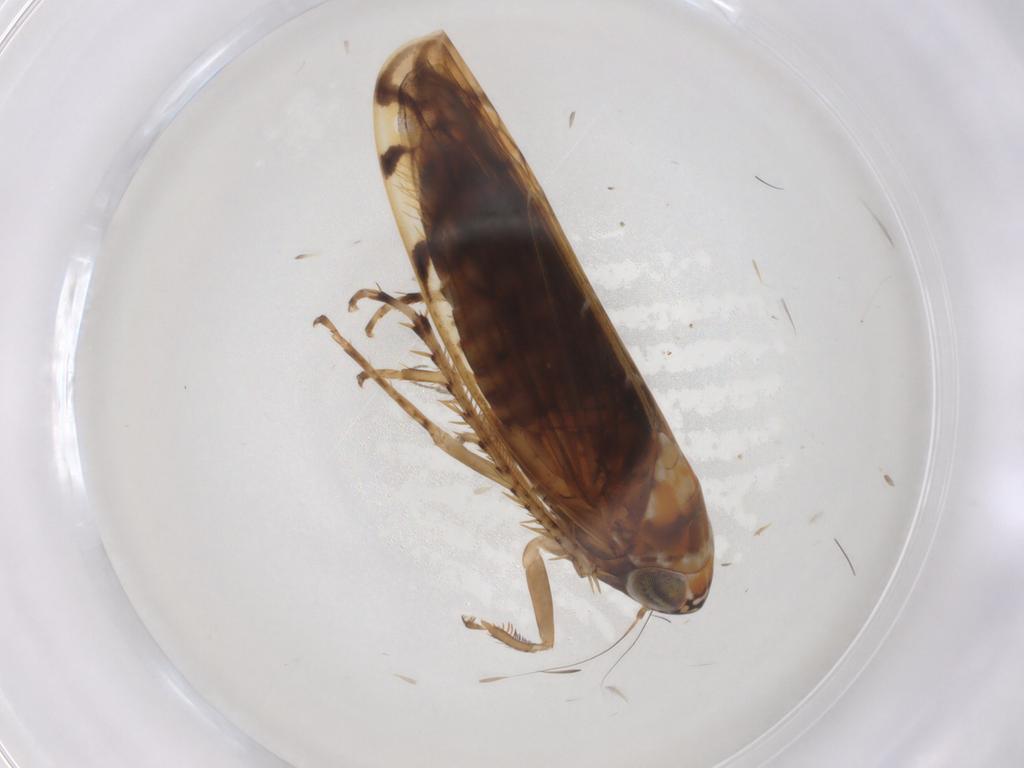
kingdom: Animalia
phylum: Arthropoda
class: Insecta
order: Hemiptera
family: Cicadellidae
